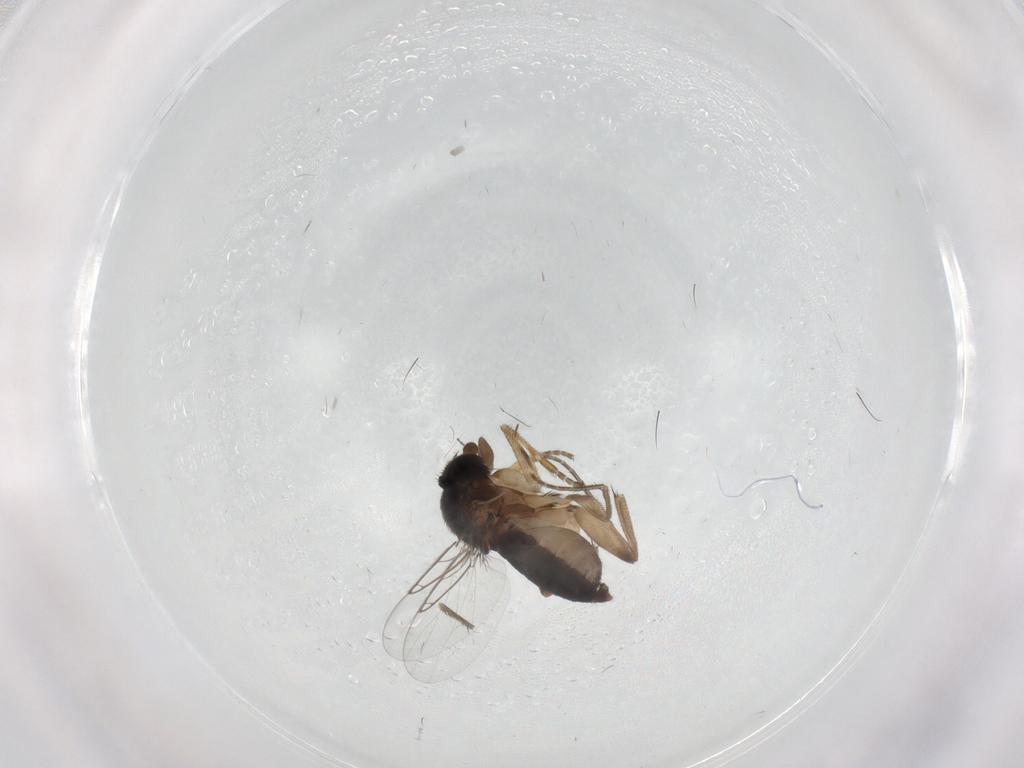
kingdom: Animalia
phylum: Arthropoda
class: Insecta
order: Diptera
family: Phoridae
